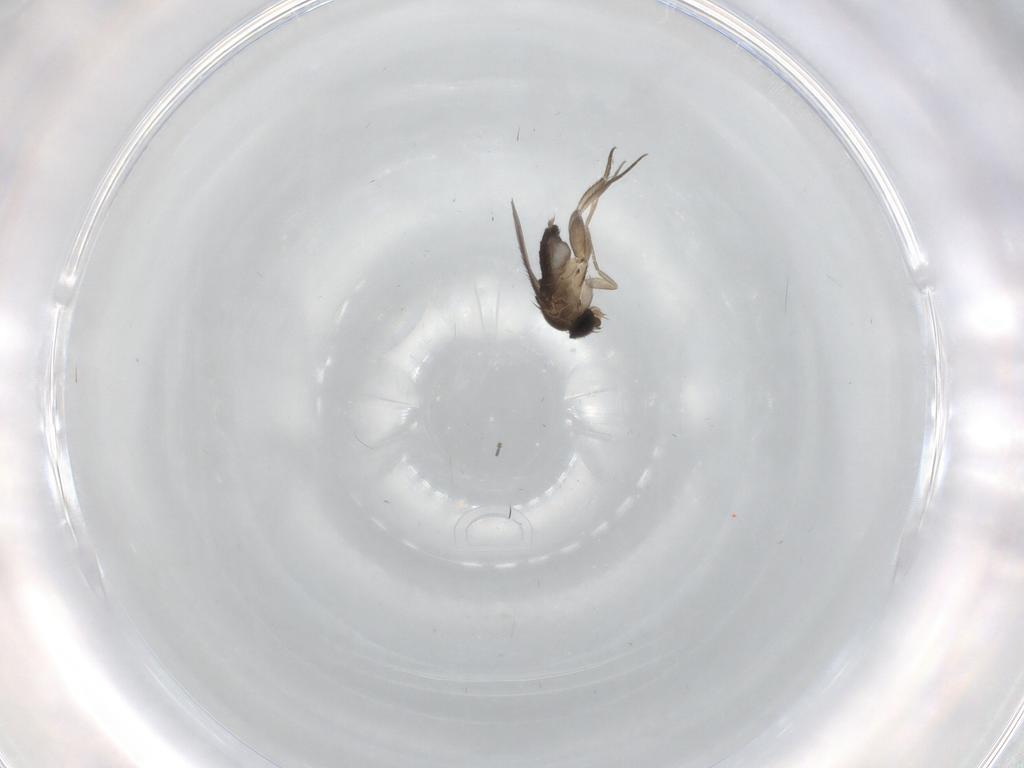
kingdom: Animalia
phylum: Arthropoda
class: Insecta
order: Diptera
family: Phoridae
